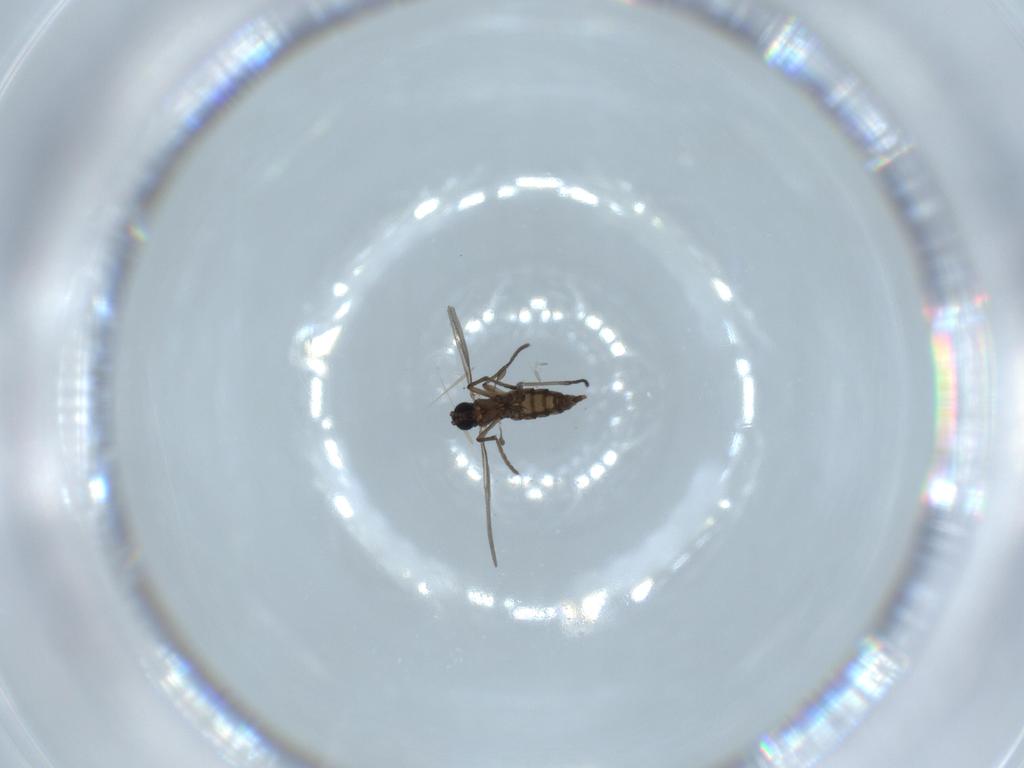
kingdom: Animalia
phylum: Arthropoda
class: Insecta
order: Diptera
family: Sciaridae
